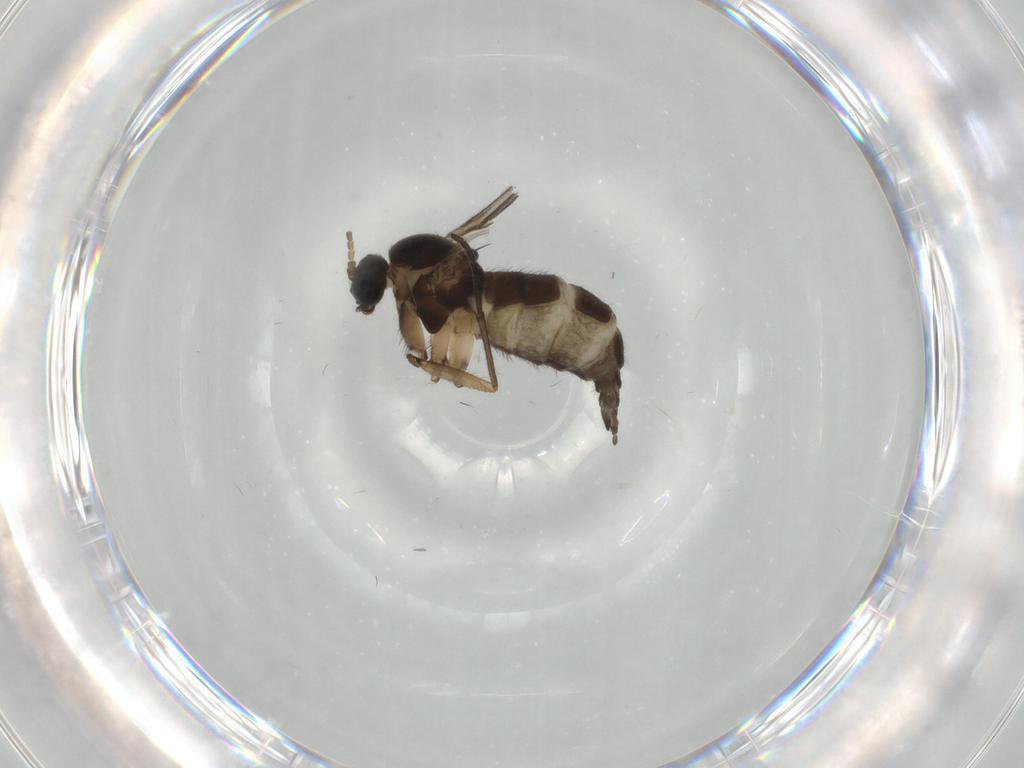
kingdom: Animalia
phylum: Arthropoda
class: Insecta
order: Diptera
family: Sciaridae
